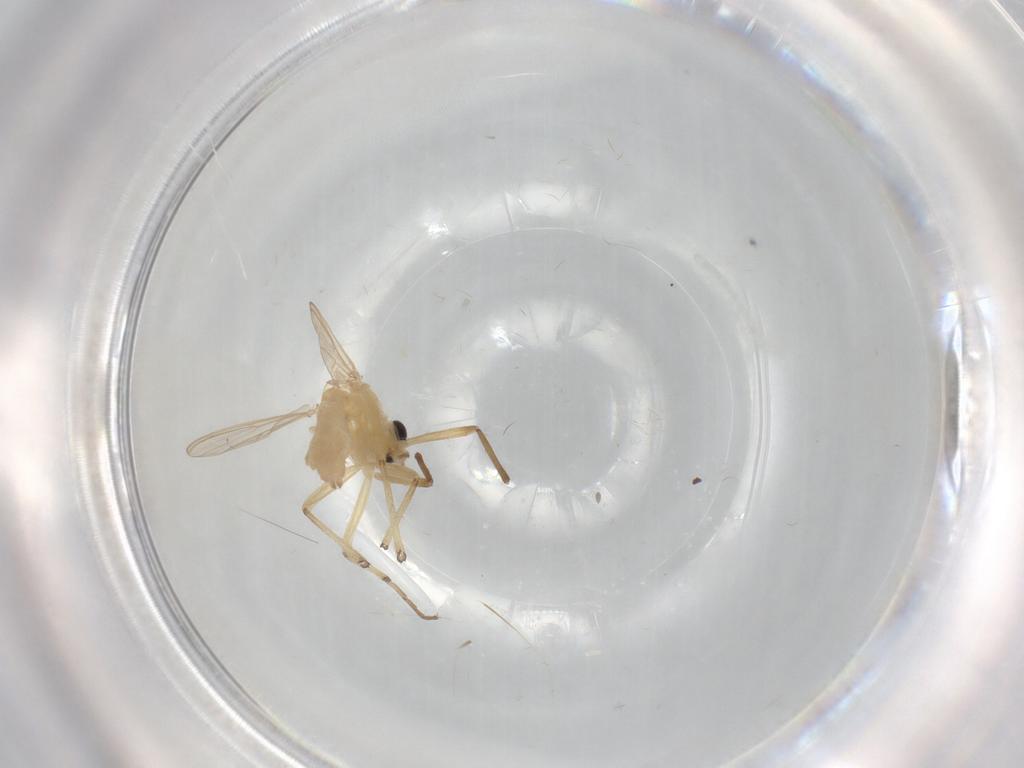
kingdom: Animalia
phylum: Arthropoda
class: Insecta
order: Diptera
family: Chironomidae
